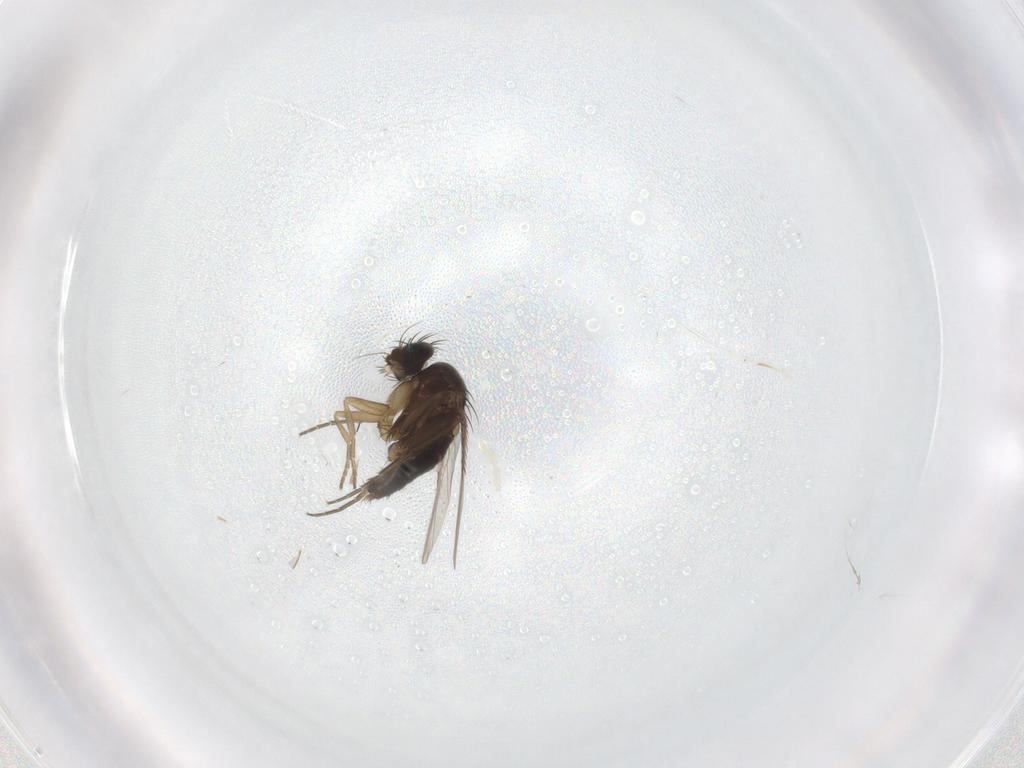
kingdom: Animalia
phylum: Arthropoda
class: Insecta
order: Diptera
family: Phoridae
